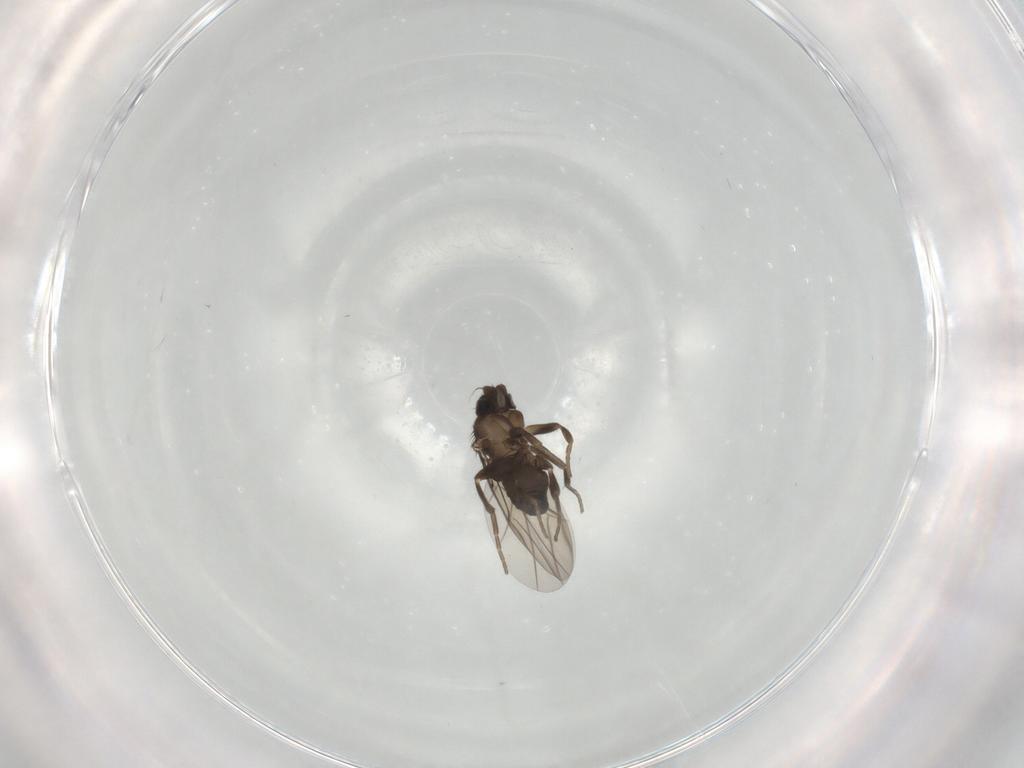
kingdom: Animalia
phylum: Arthropoda
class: Insecta
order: Diptera
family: Phoridae
